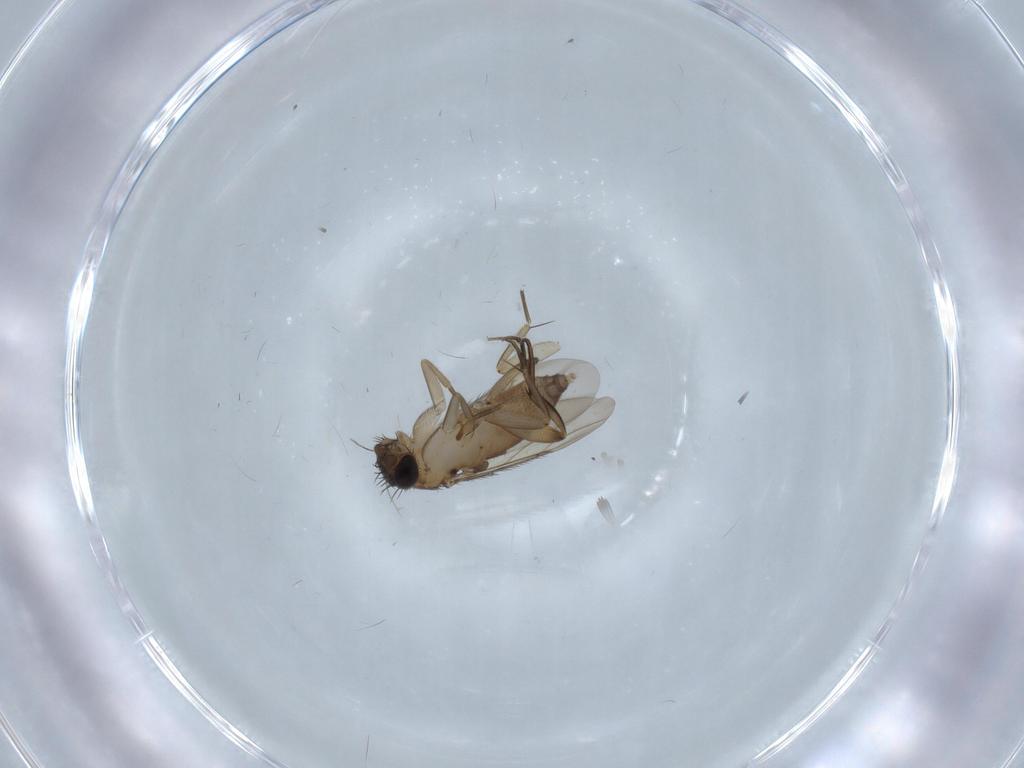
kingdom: Animalia
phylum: Arthropoda
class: Insecta
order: Diptera
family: Phoridae
